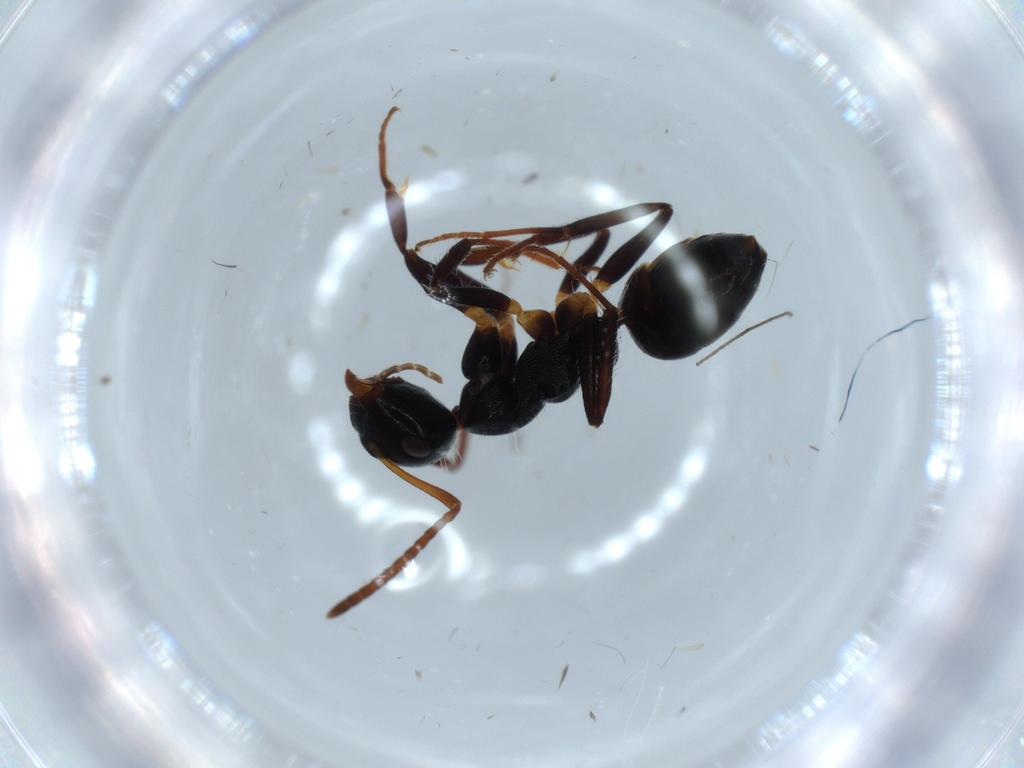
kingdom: Animalia
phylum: Arthropoda
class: Insecta
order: Hymenoptera
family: Formicidae
